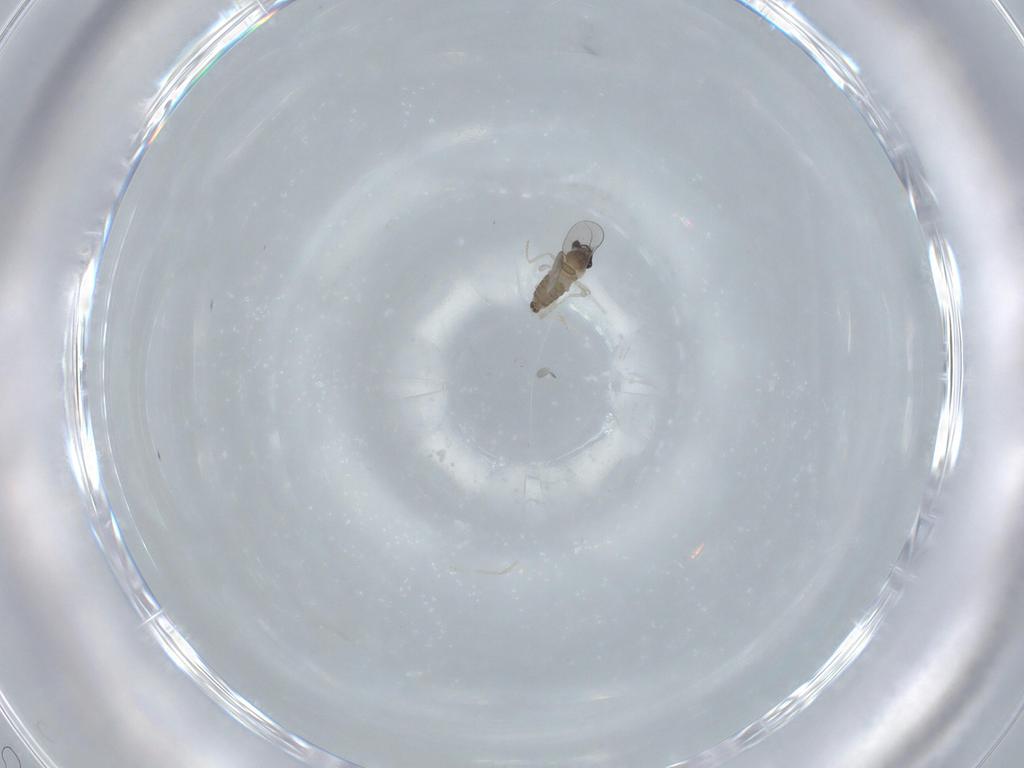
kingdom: Animalia
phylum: Arthropoda
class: Insecta
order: Diptera
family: Cecidomyiidae
